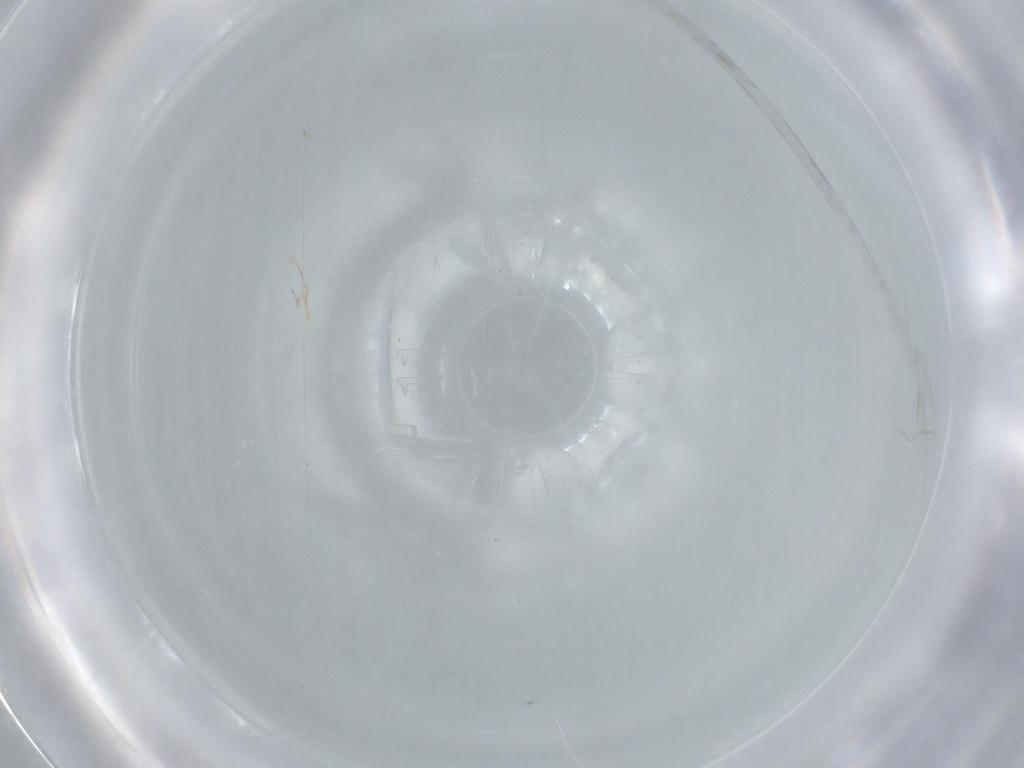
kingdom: Animalia
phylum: Arthropoda
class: Insecta
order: Diptera
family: Cecidomyiidae
